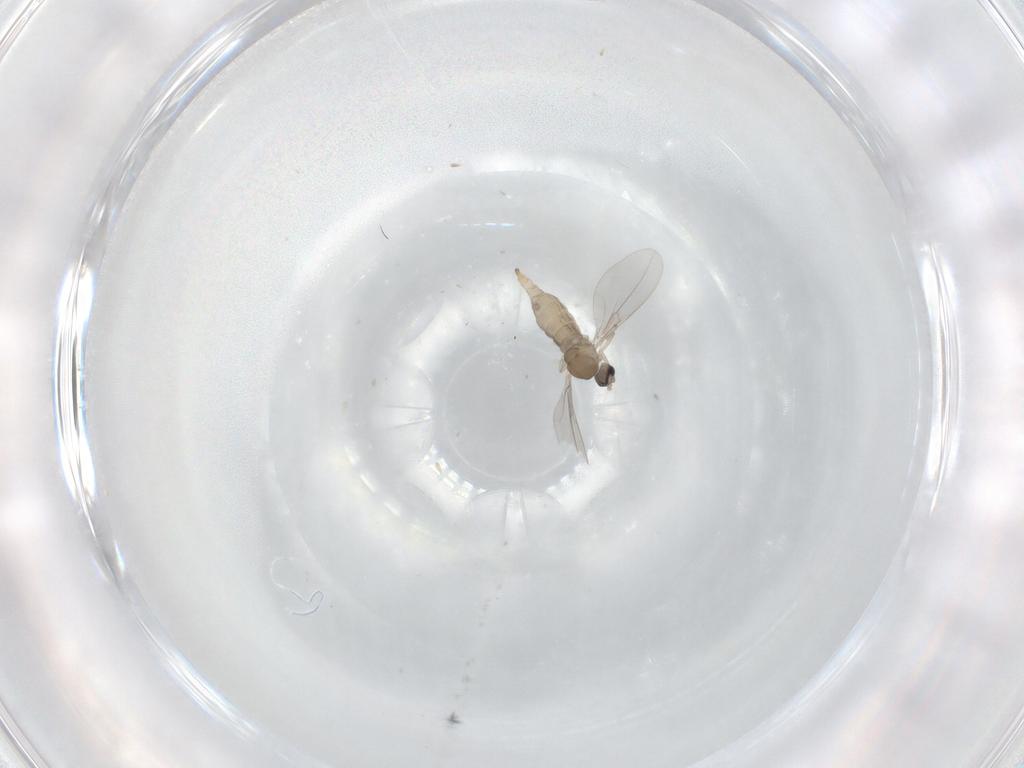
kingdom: Animalia
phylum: Arthropoda
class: Insecta
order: Diptera
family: Cecidomyiidae
